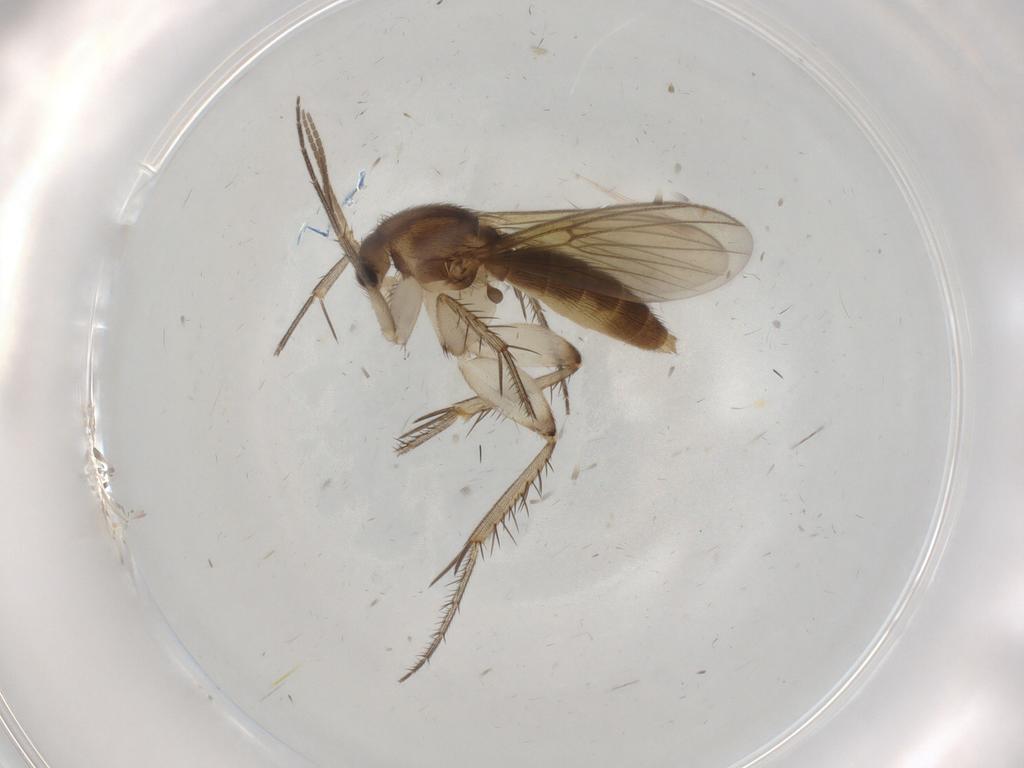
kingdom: Animalia
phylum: Arthropoda
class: Insecta
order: Diptera
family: Mycetophilidae
